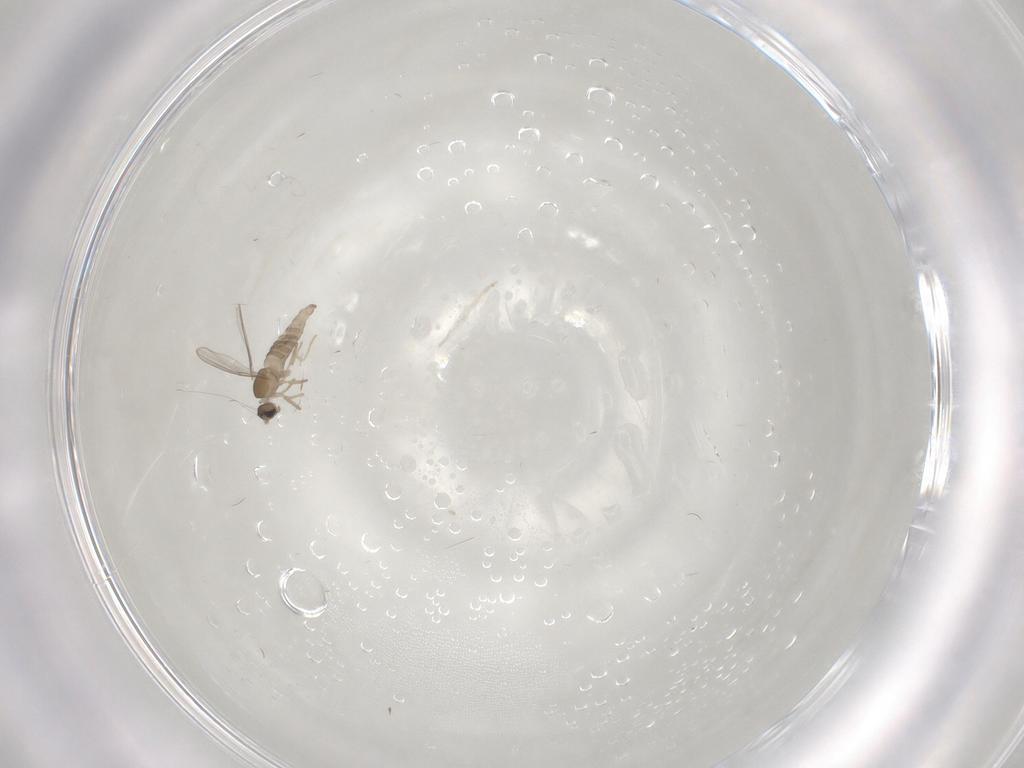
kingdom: Animalia
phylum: Arthropoda
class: Insecta
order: Diptera
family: Cecidomyiidae
